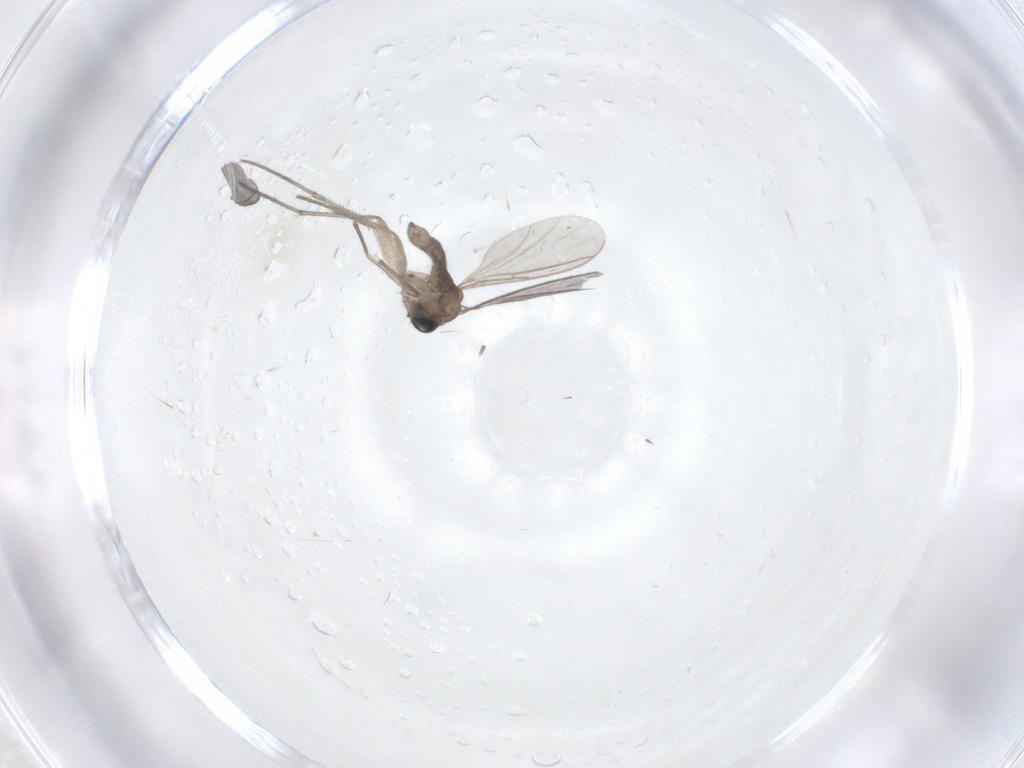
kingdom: Animalia
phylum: Arthropoda
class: Insecta
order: Diptera
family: Sciaridae
